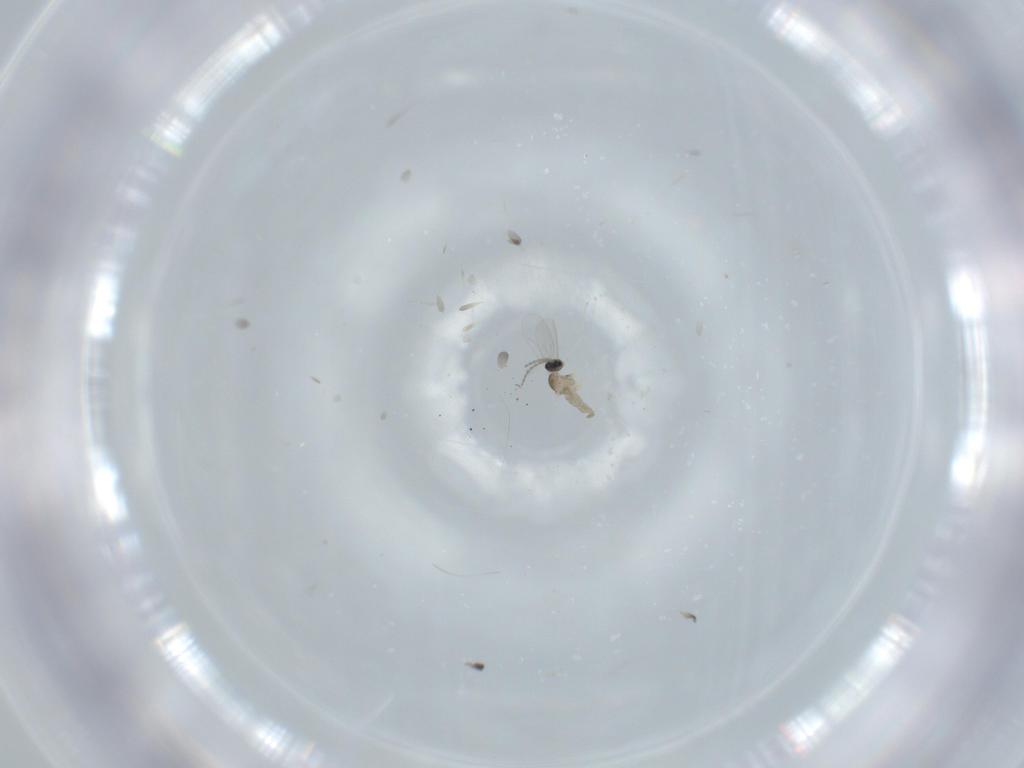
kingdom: Animalia
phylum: Arthropoda
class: Insecta
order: Diptera
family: Cecidomyiidae
